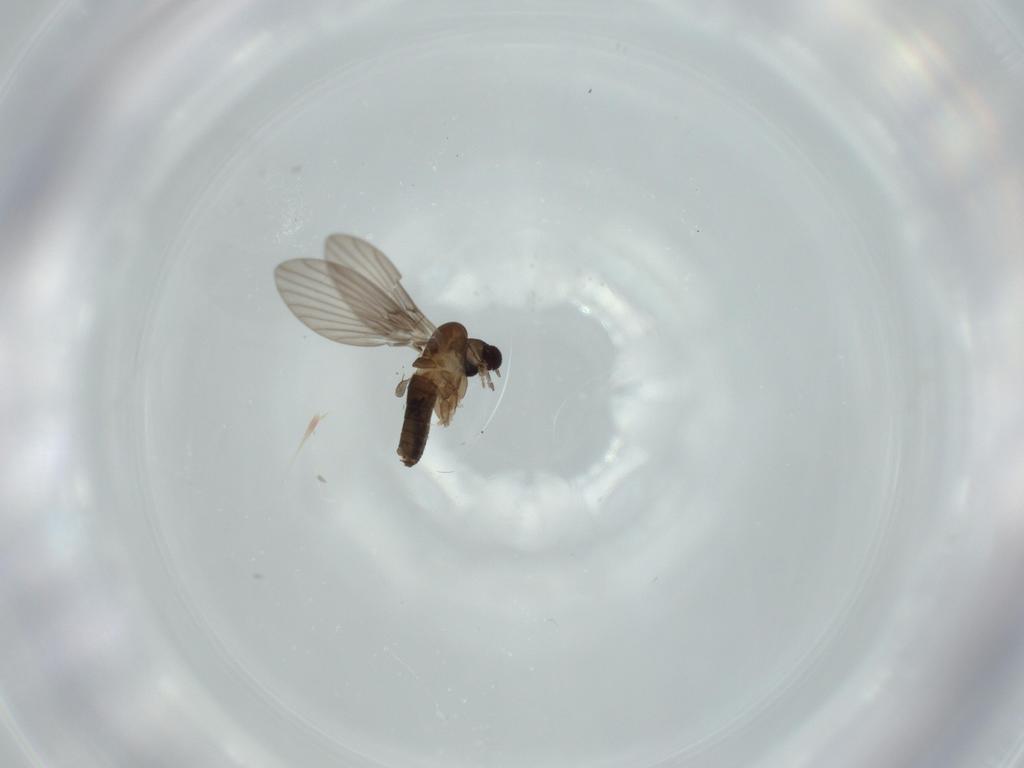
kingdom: Animalia
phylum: Arthropoda
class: Insecta
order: Diptera
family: Psychodidae
